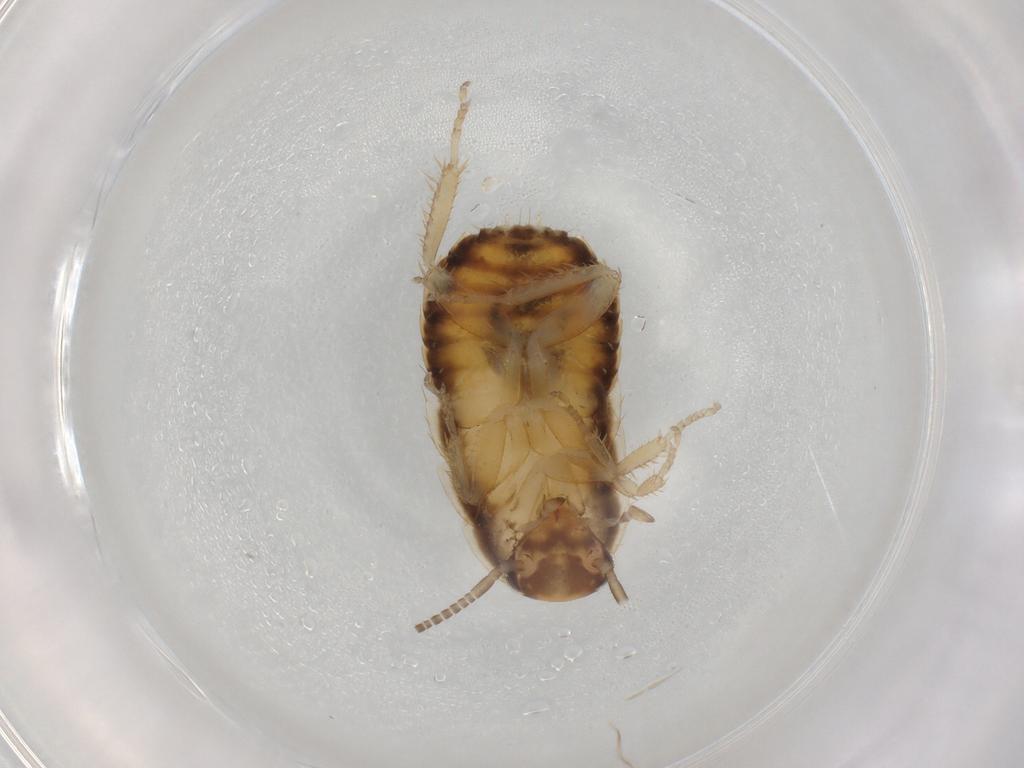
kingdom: Animalia
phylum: Arthropoda
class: Insecta
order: Blattodea
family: Ectobiidae
